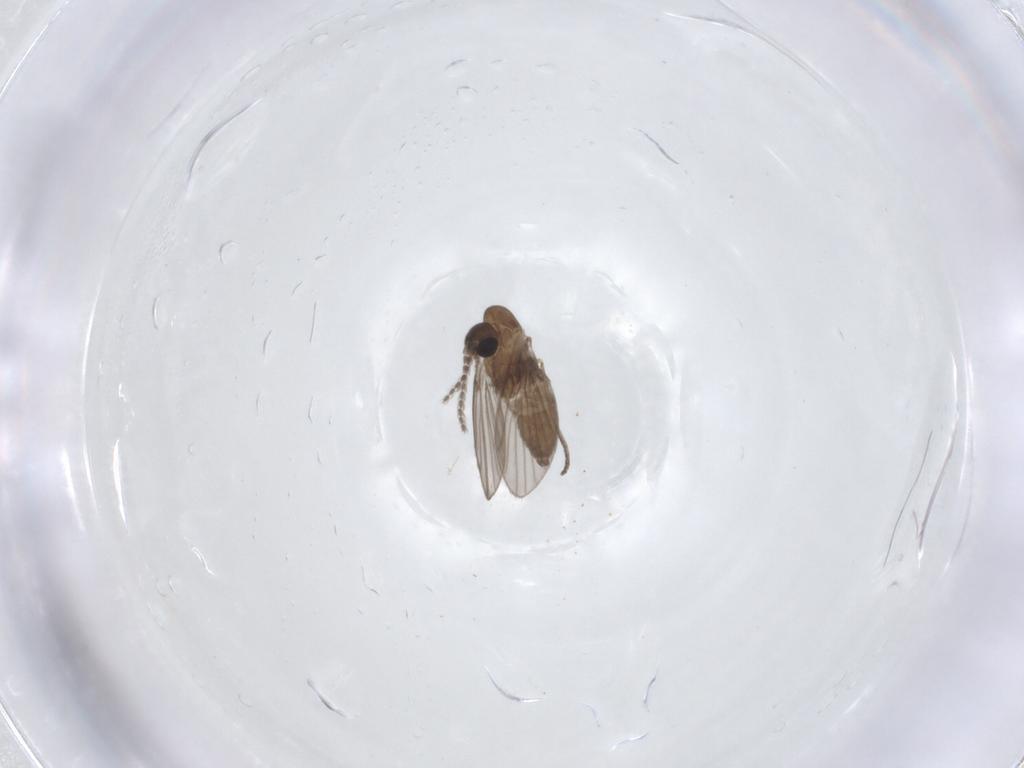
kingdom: Animalia
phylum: Arthropoda
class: Insecta
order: Diptera
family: Psychodidae
